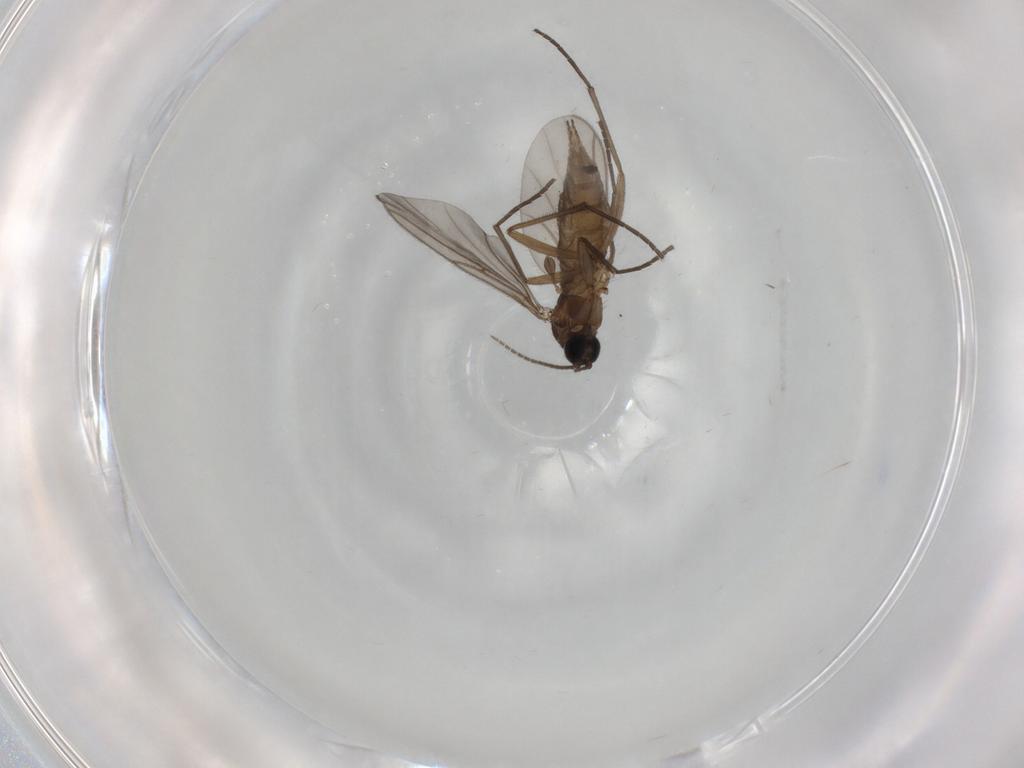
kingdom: Animalia
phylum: Arthropoda
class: Insecta
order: Diptera
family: Sciaridae
